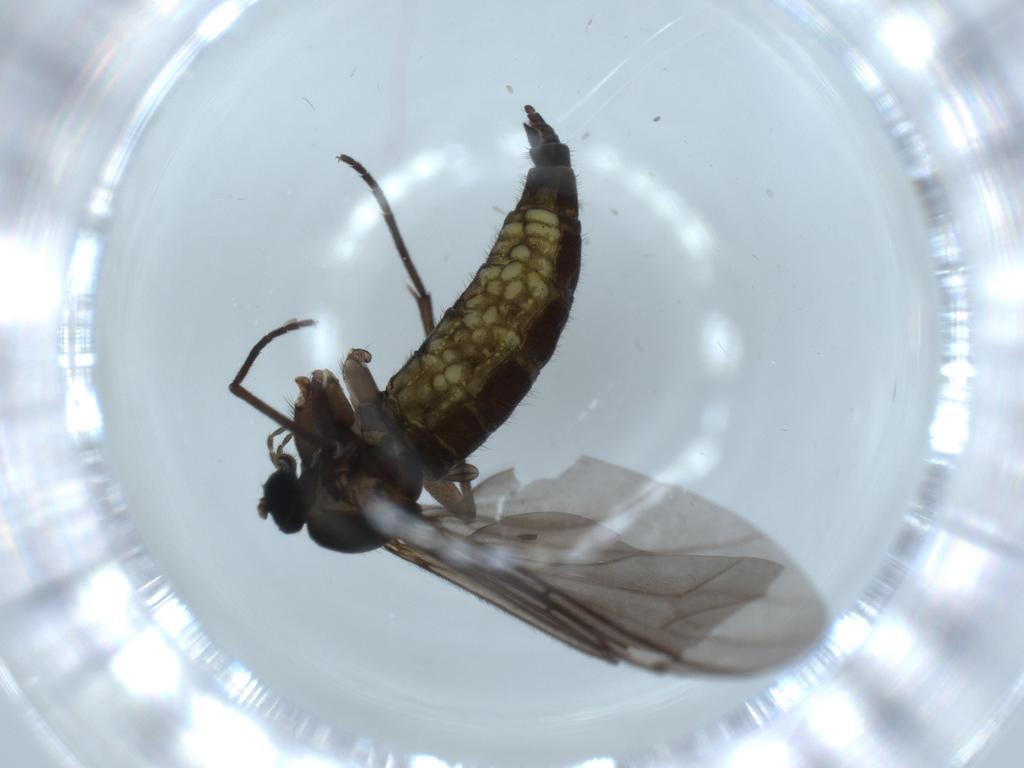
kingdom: Animalia
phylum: Arthropoda
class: Insecta
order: Diptera
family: Sciaridae
